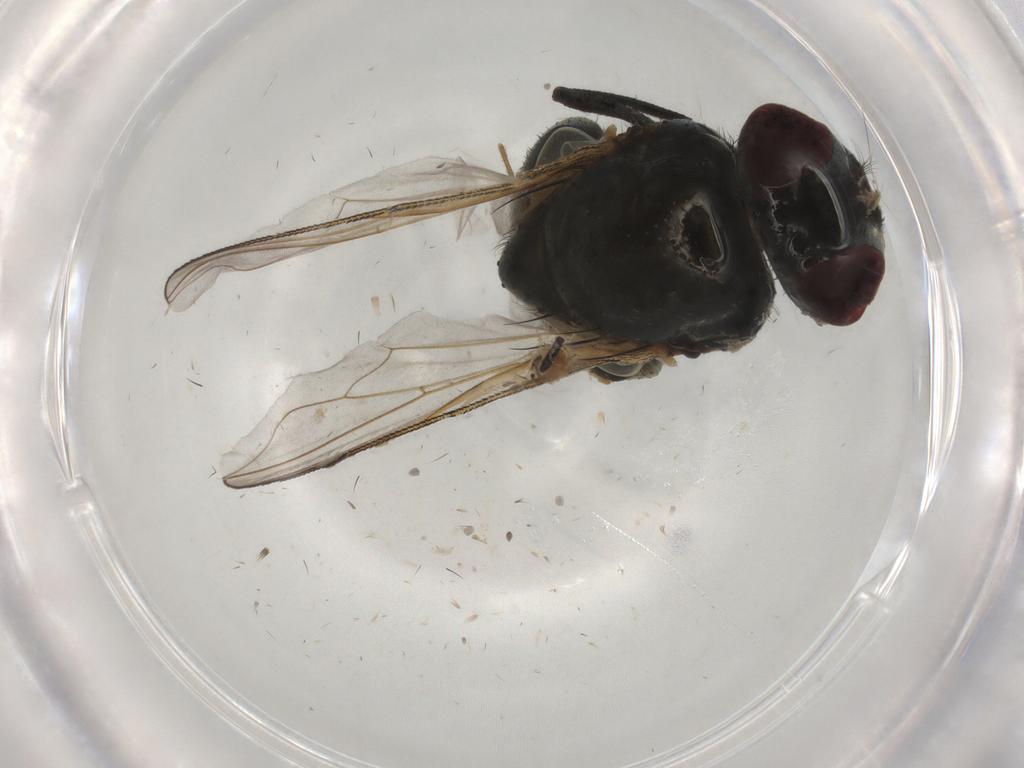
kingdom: Animalia
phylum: Arthropoda
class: Insecta
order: Diptera
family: Muscidae
